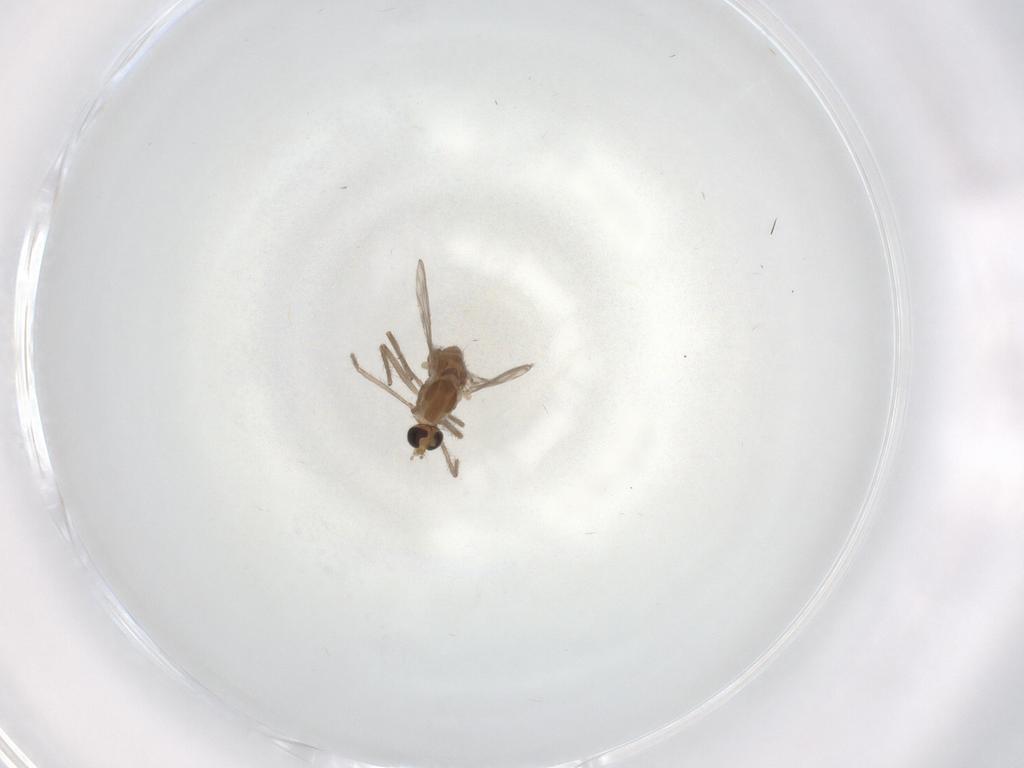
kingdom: Animalia
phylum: Arthropoda
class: Insecta
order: Diptera
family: Chironomidae
